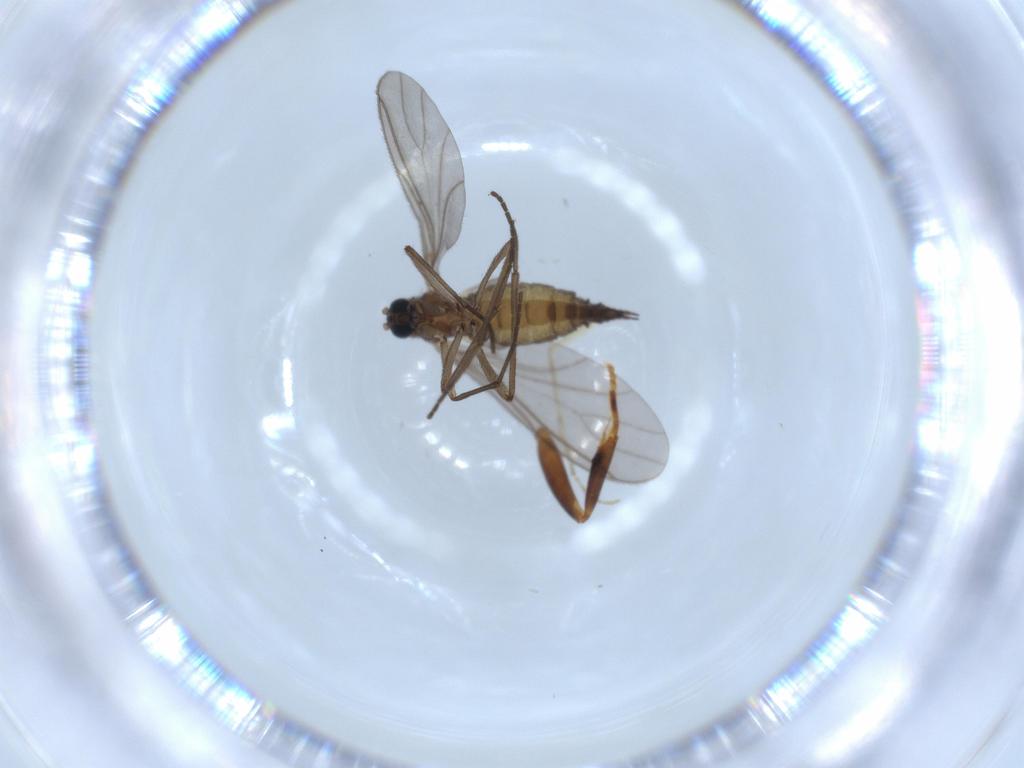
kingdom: Animalia
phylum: Arthropoda
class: Insecta
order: Diptera
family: Sciaridae
